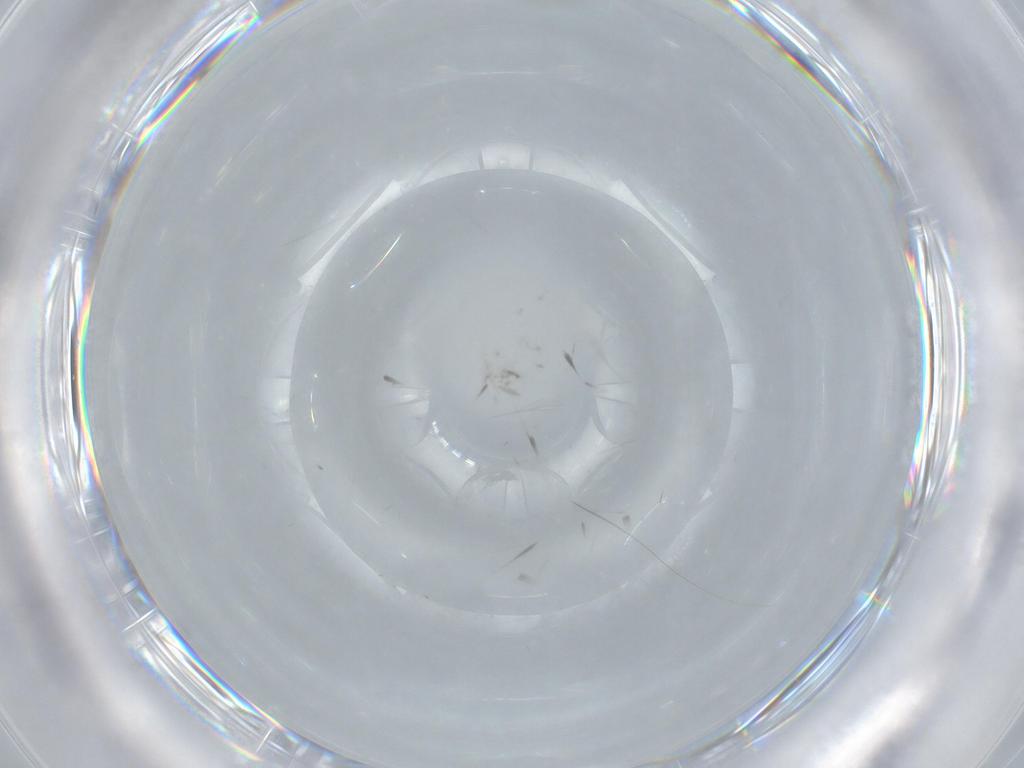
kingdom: Animalia
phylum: Arthropoda
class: Insecta
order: Hymenoptera
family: Scelionidae
